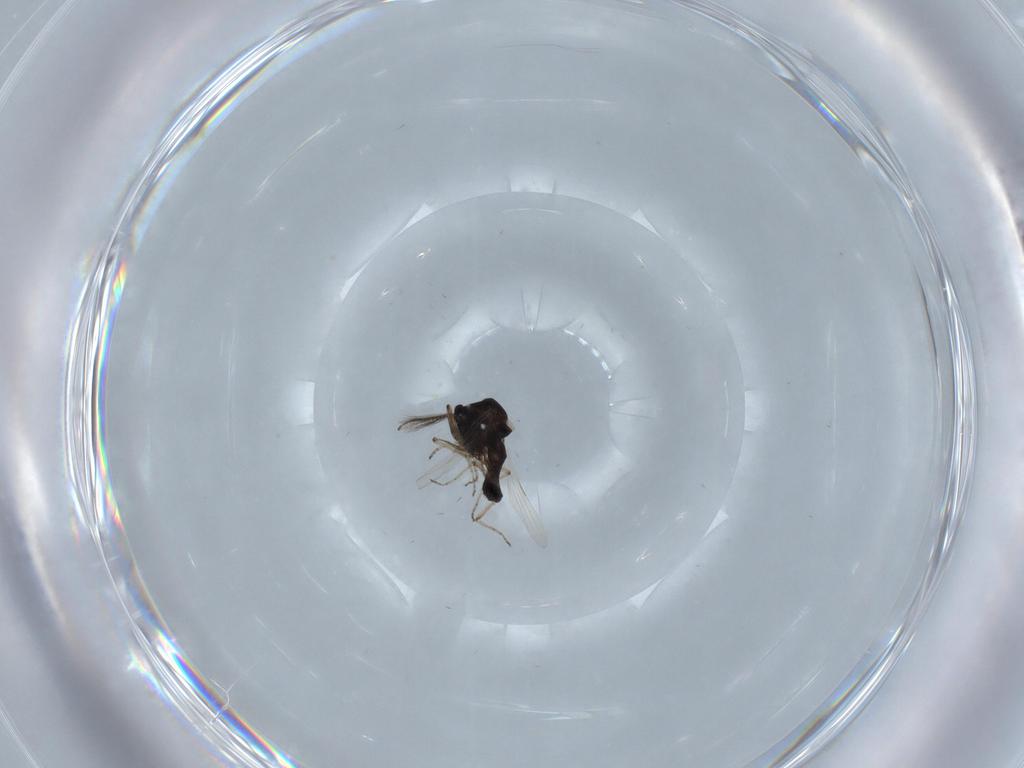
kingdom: Animalia
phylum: Arthropoda
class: Insecta
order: Diptera
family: Ceratopogonidae
